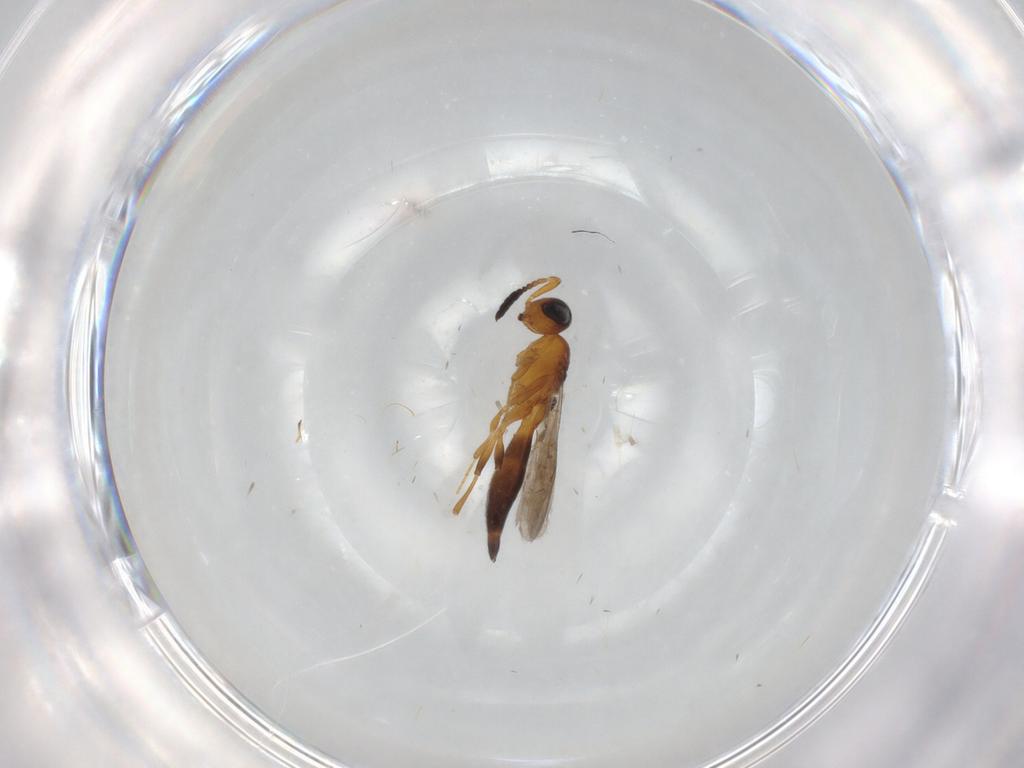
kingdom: Animalia
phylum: Arthropoda
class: Insecta
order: Hymenoptera
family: Scelionidae
